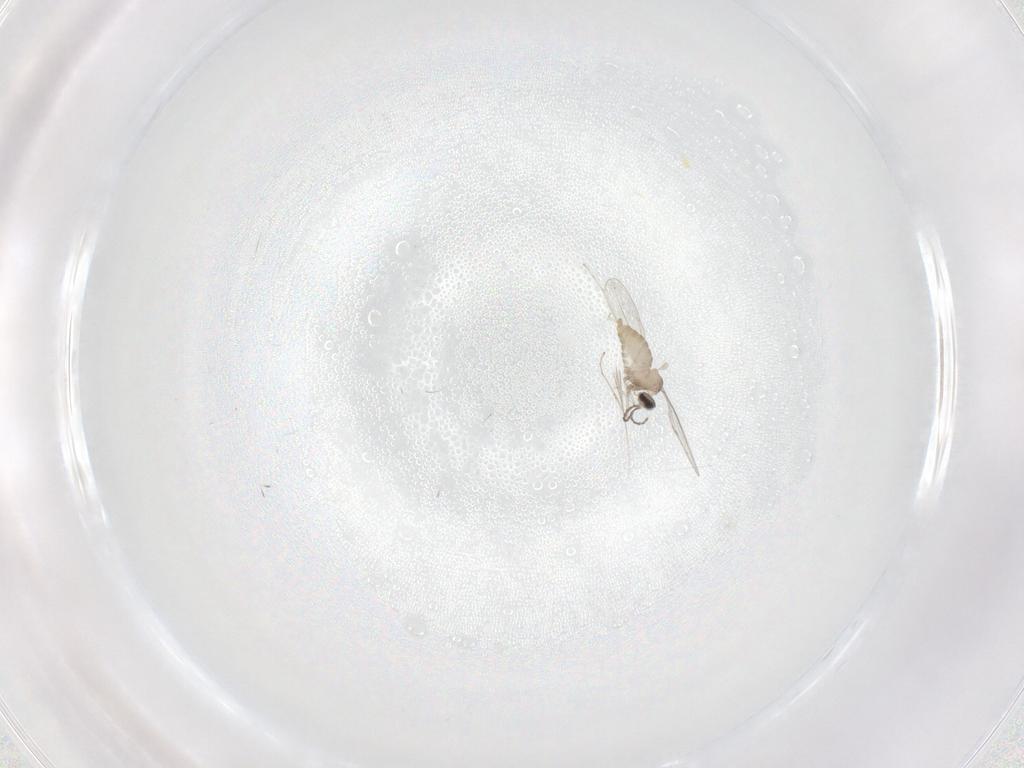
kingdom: Animalia
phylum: Arthropoda
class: Insecta
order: Diptera
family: Cecidomyiidae
